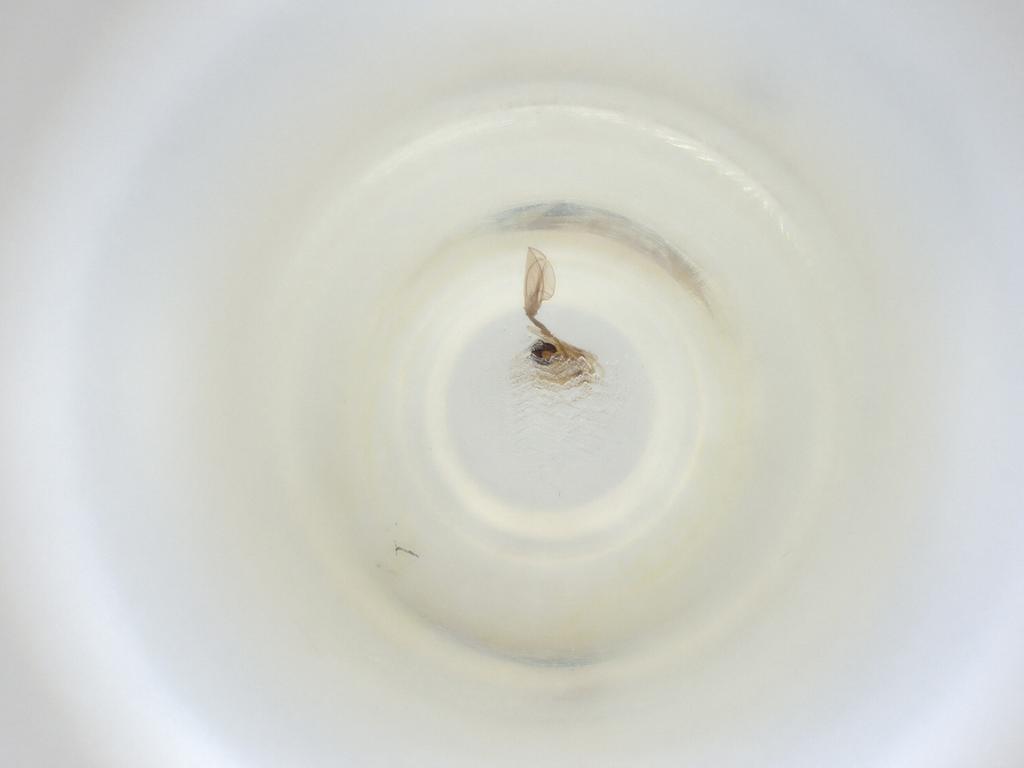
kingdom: Animalia
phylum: Arthropoda
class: Insecta
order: Diptera
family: Cecidomyiidae
